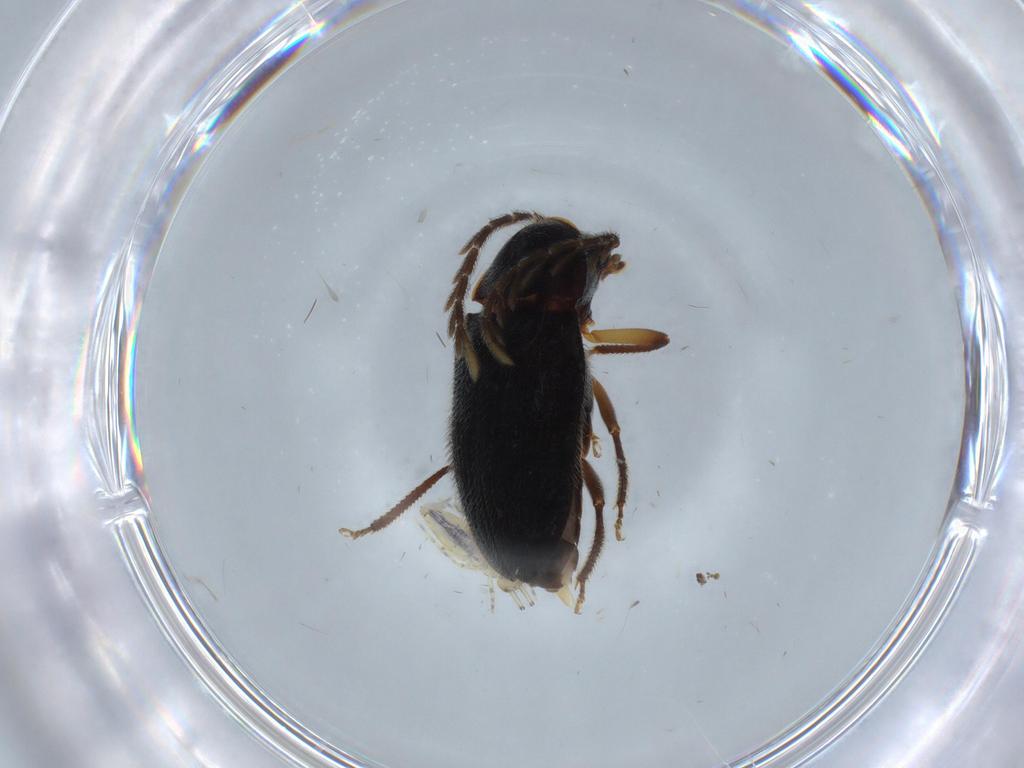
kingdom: Animalia
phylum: Arthropoda
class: Insecta
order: Coleoptera
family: Ptilodactylidae
